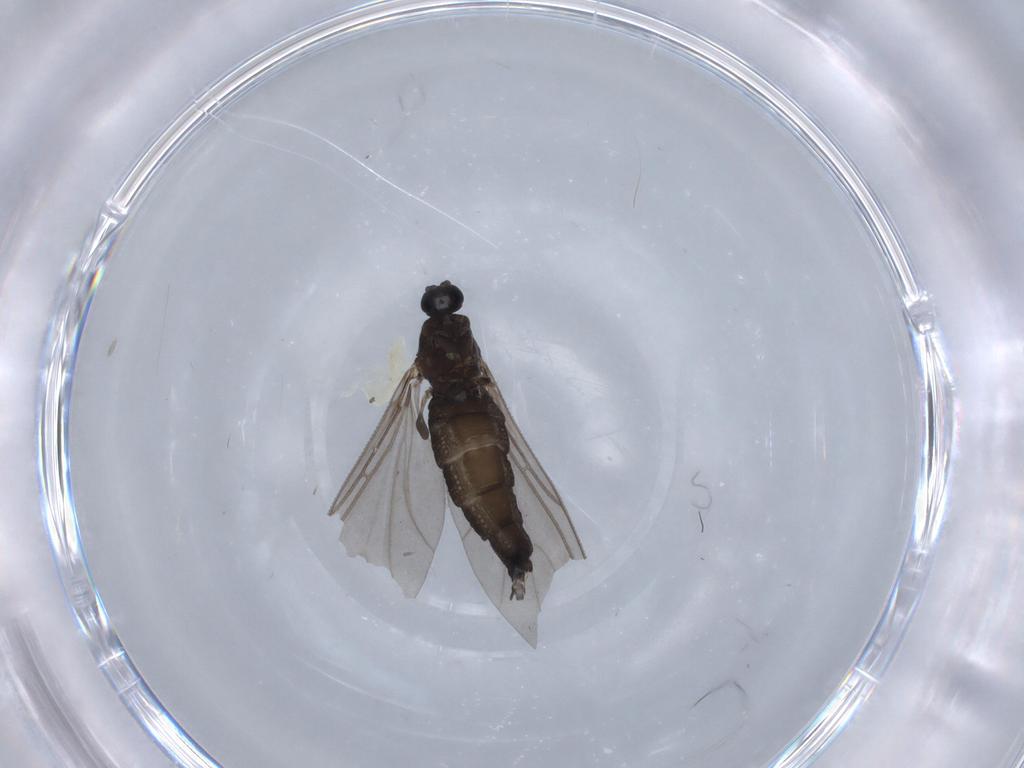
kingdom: Animalia
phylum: Arthropoda
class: Insecta
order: Diptera
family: Sciaridae
